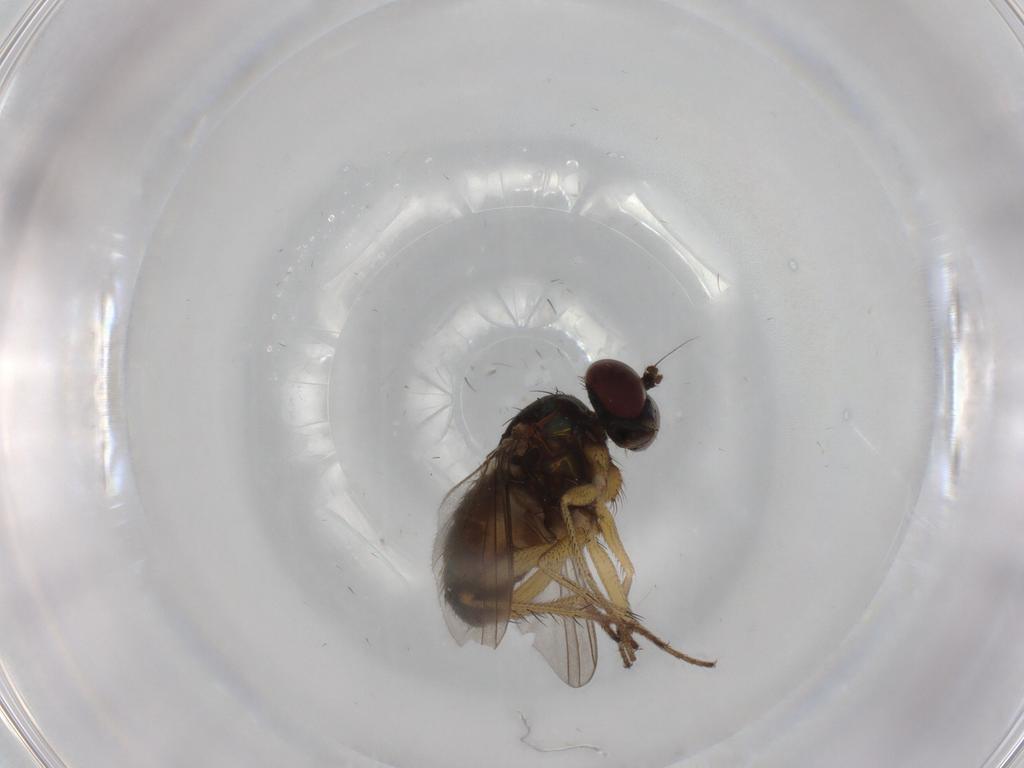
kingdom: Animalia
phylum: Arthropoda
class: Insecta
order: Diptera
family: Dolichopodidae
